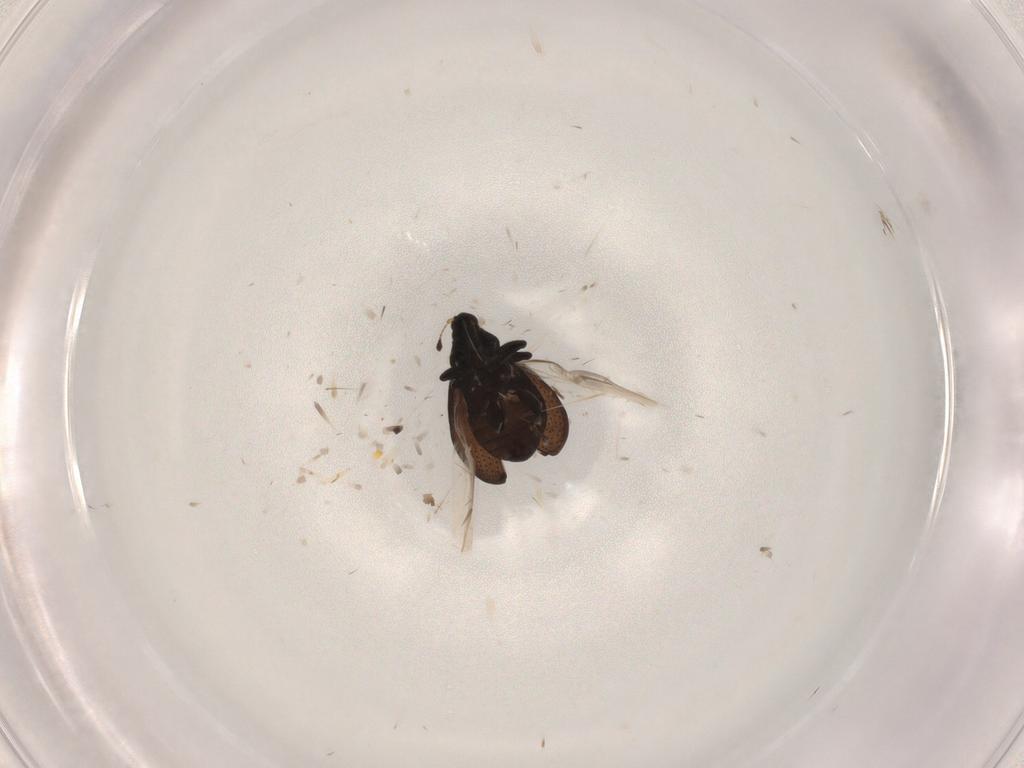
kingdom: Animalia
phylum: Arthropoda
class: Insecta
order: Coleoptera
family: Curculionidae
